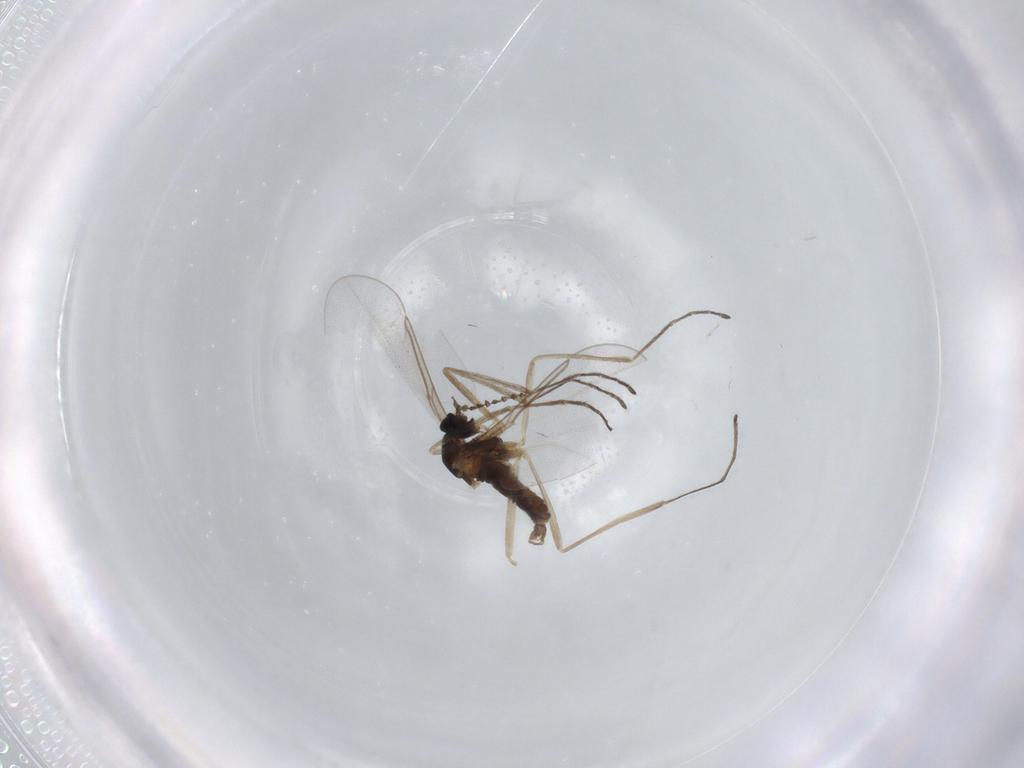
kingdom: Animalia
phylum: Arthropoda
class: Insecta
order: Diptera
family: Cecidomyiidae
